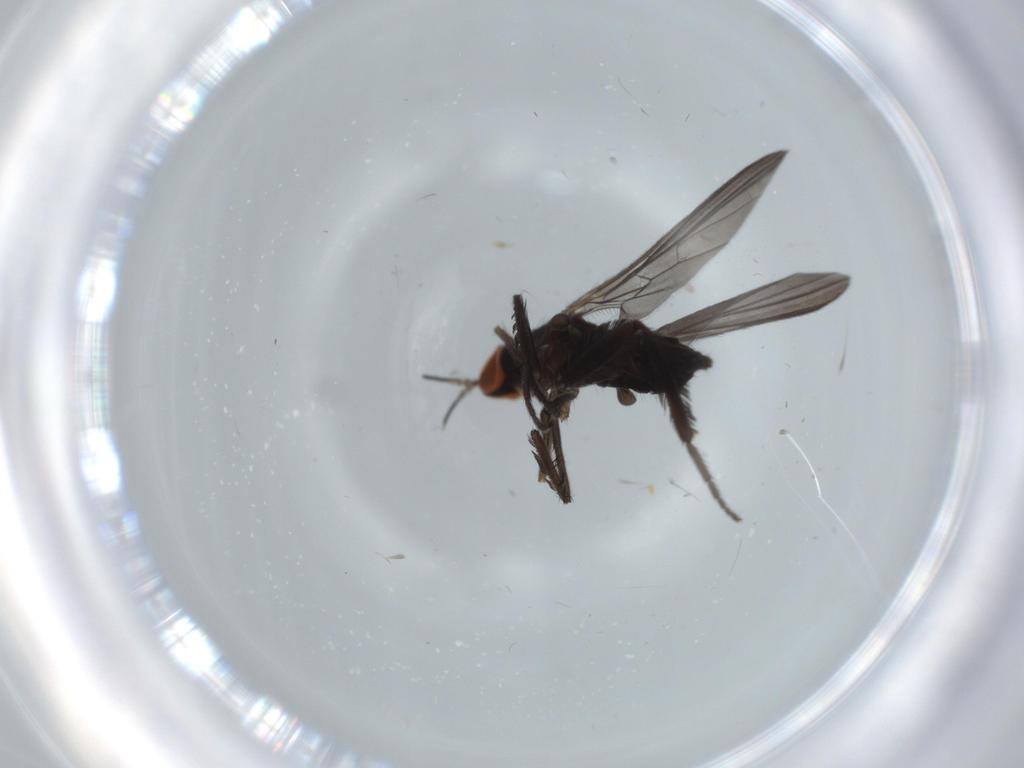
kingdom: Animalia
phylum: Arthropoda
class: Insecta
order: Diptera
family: Empididae
